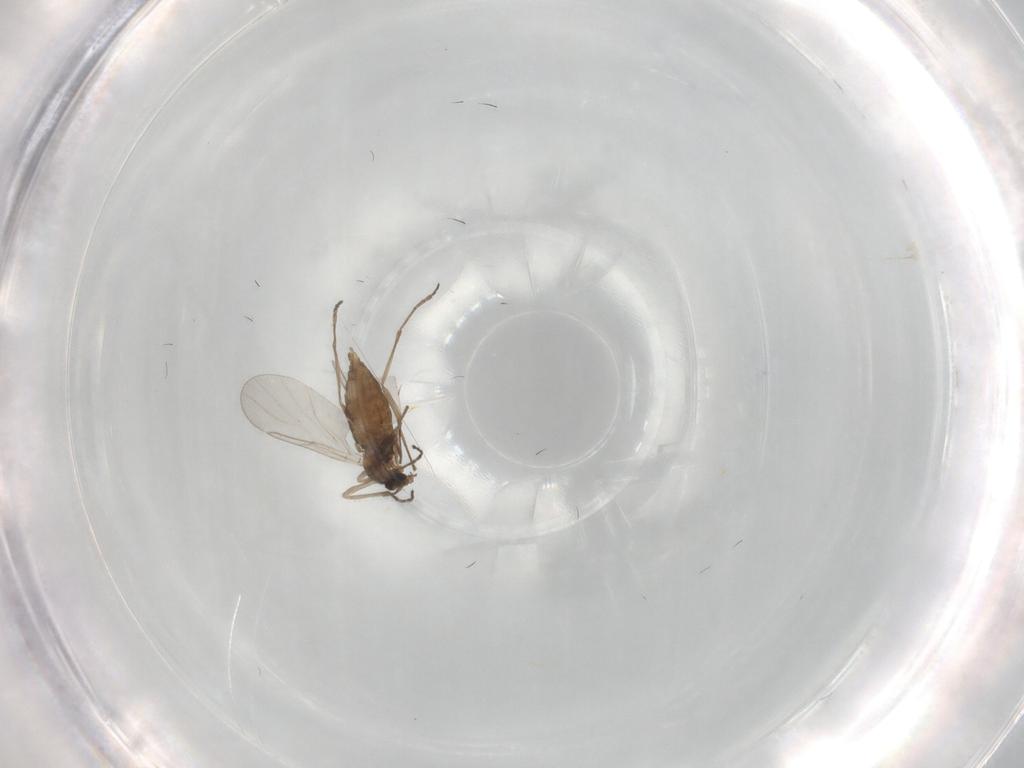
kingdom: Animalia
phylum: Arthropoda
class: Insecta
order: Diptera
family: Cecidomyiidae
